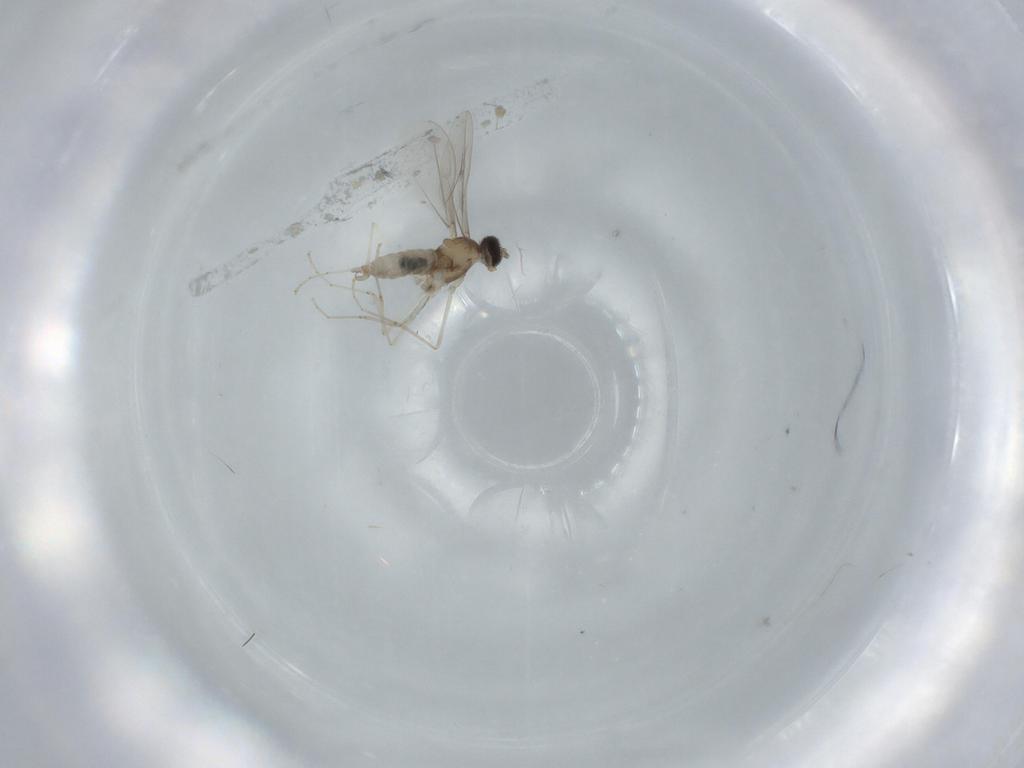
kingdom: Animalia
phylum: Arthropoda
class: Insecta
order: Diptera
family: Cecidomyiidae
